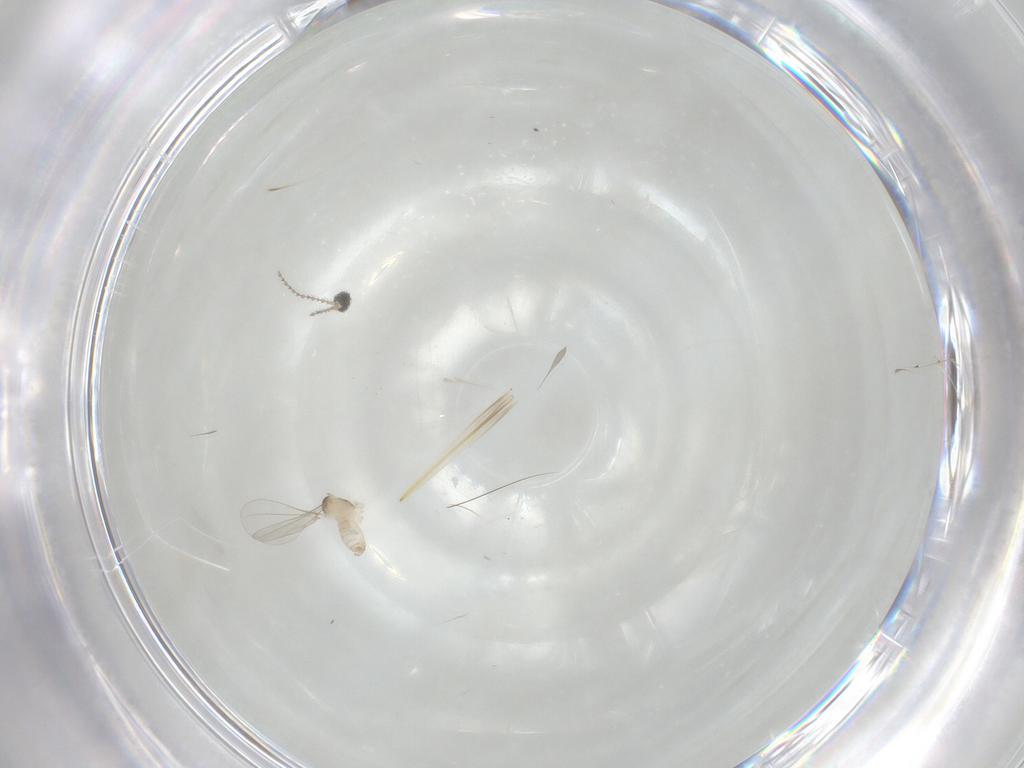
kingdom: Animalia
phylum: Arthropoda
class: Insecta
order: Diptera
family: Cecidomyiidae
